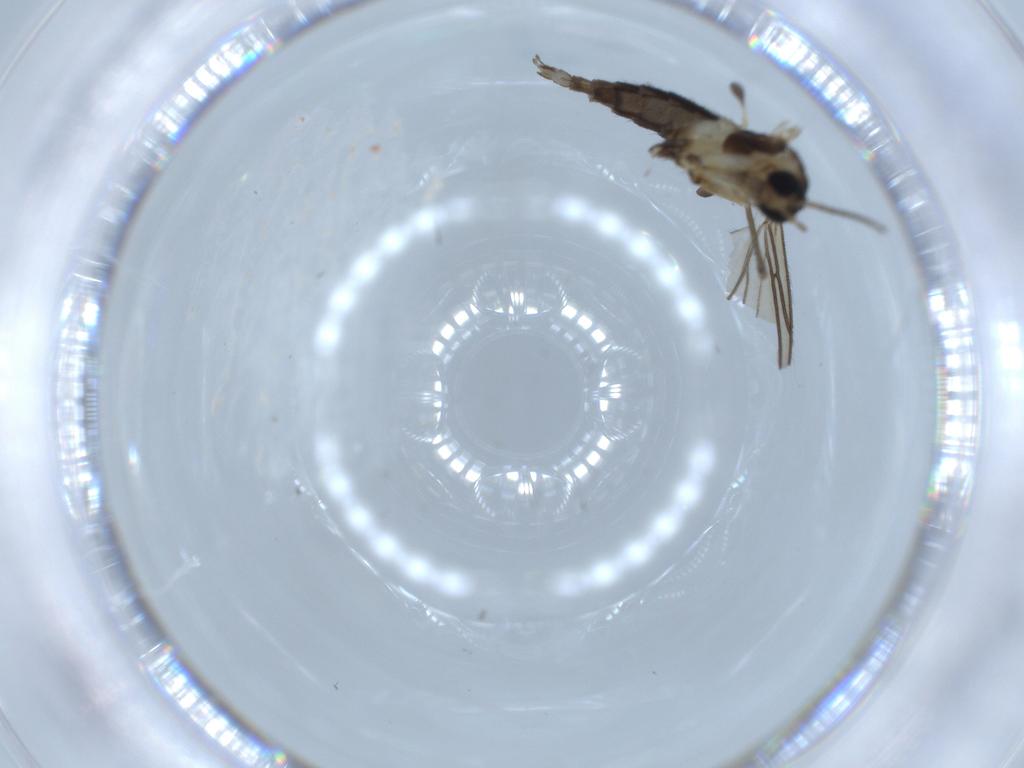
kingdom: Animalia
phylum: Arthropoda
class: Insecta
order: Diptera
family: Sciaridae
